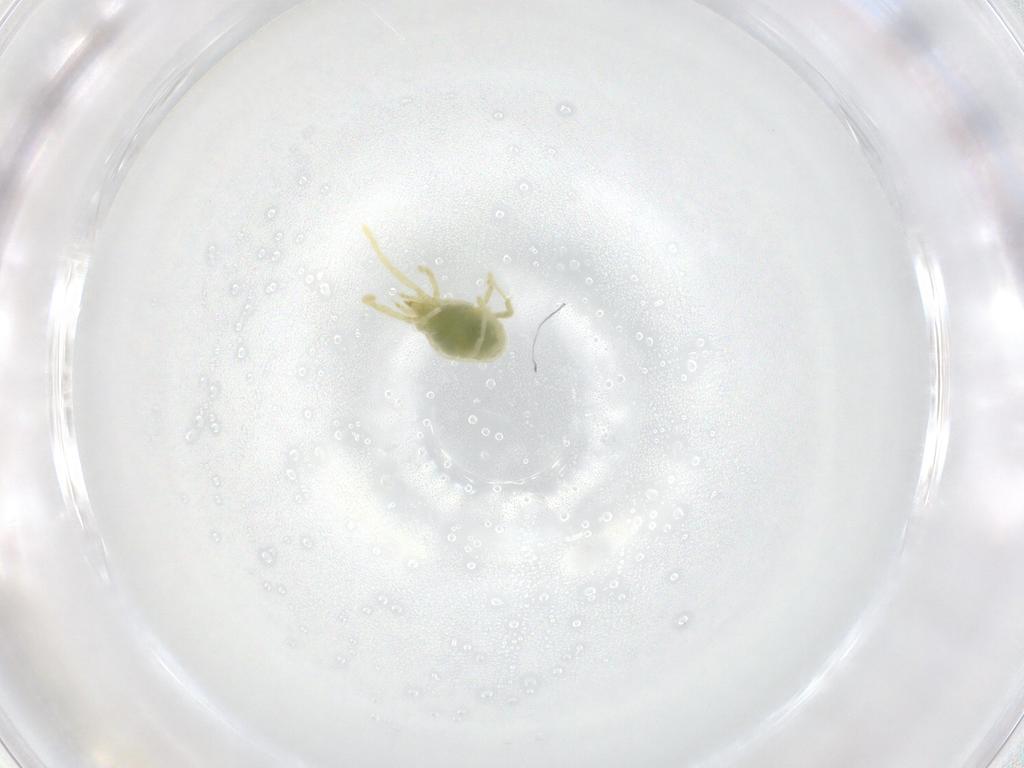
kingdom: Animalia
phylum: Arthropoda
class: Arachnida
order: Trombidiformes
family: Erythraeidae
